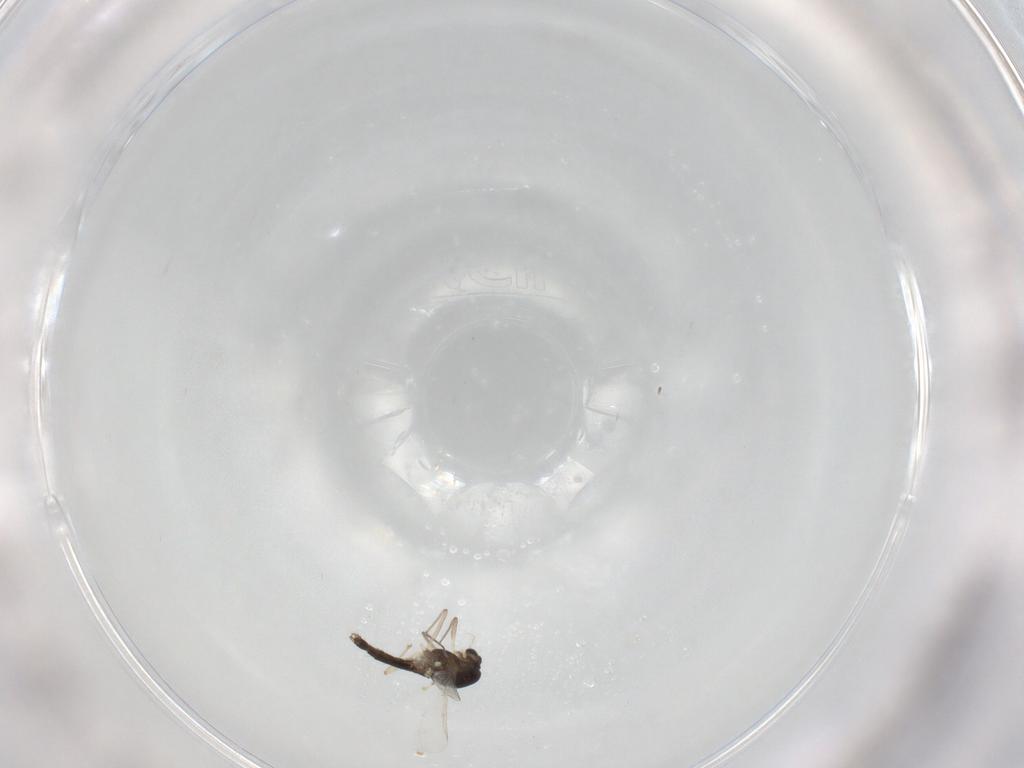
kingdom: Animalia
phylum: Arthropoda
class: Insecta
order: Diptera
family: Chironomidae
